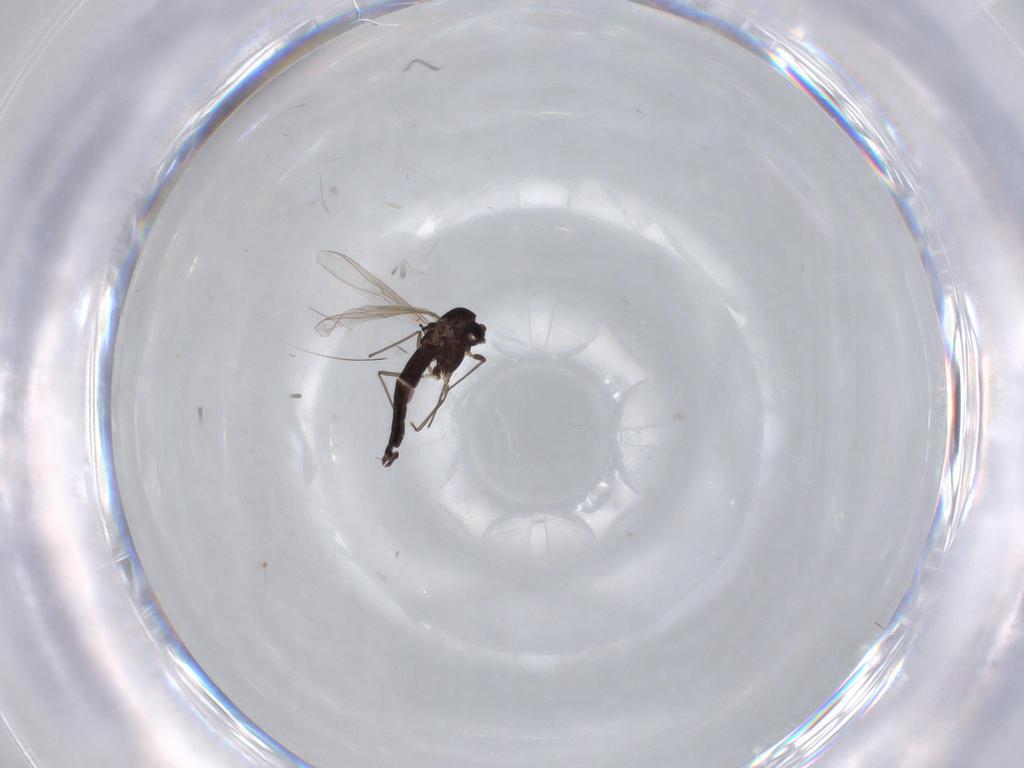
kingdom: Animalia
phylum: Arthropoda
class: Insecta
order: Diptera
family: Chironomidae
